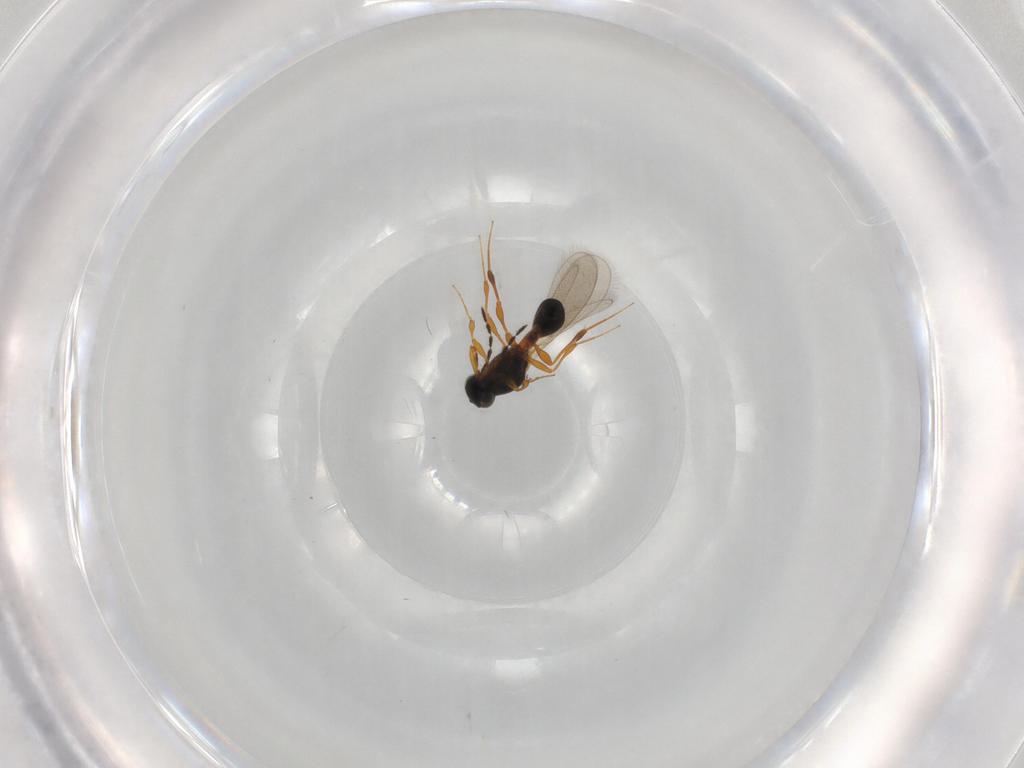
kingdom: Animalia
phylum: Arthropoda
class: Insecta
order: Hymenoptera
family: Platygastridae
